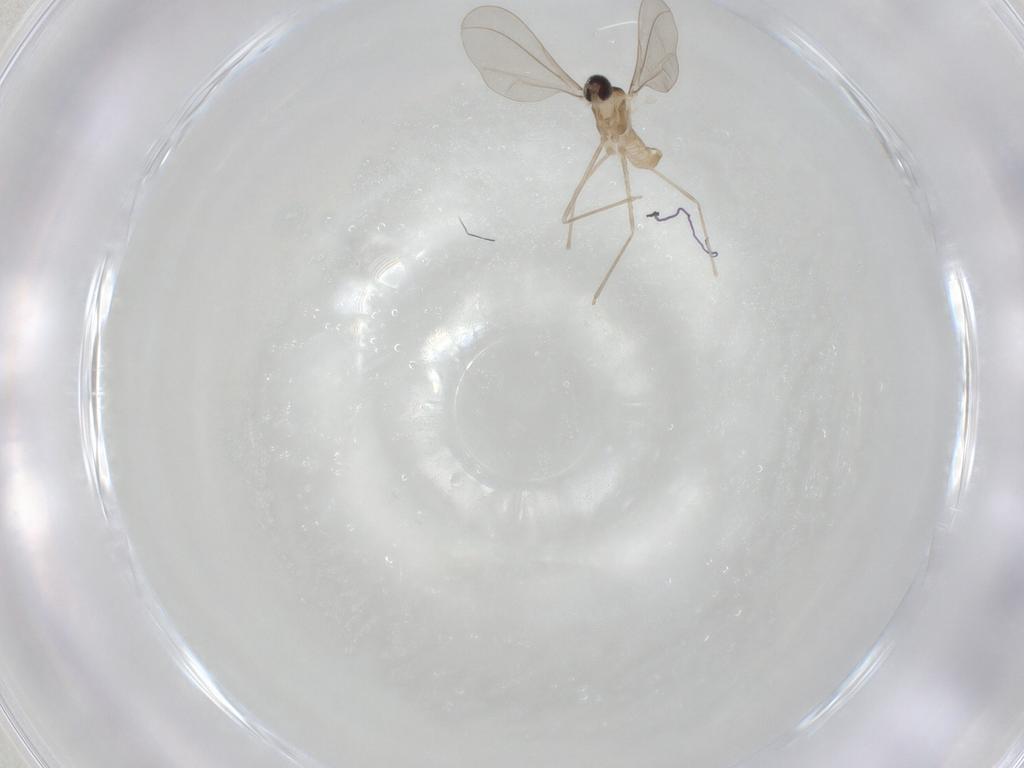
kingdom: Animalia
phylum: Arthropoda
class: Insecta
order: Diptera
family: Cecidomyiidae
